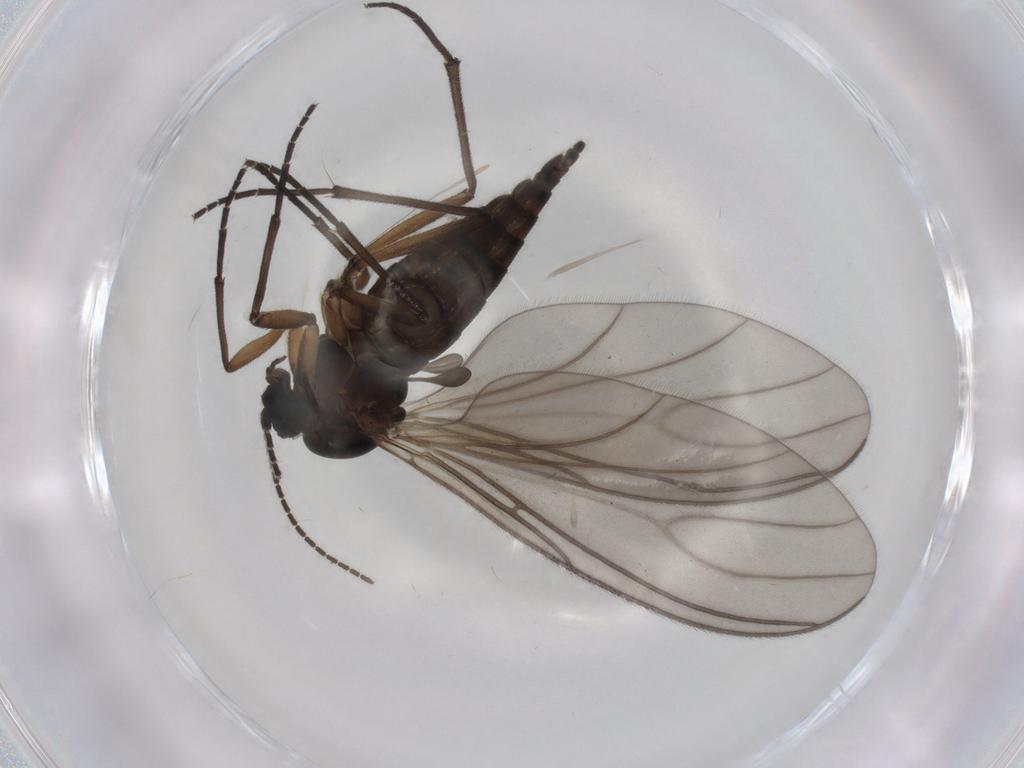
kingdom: Animalia
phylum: Arthropoda
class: Insecta
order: Diptera
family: Sciaridae
